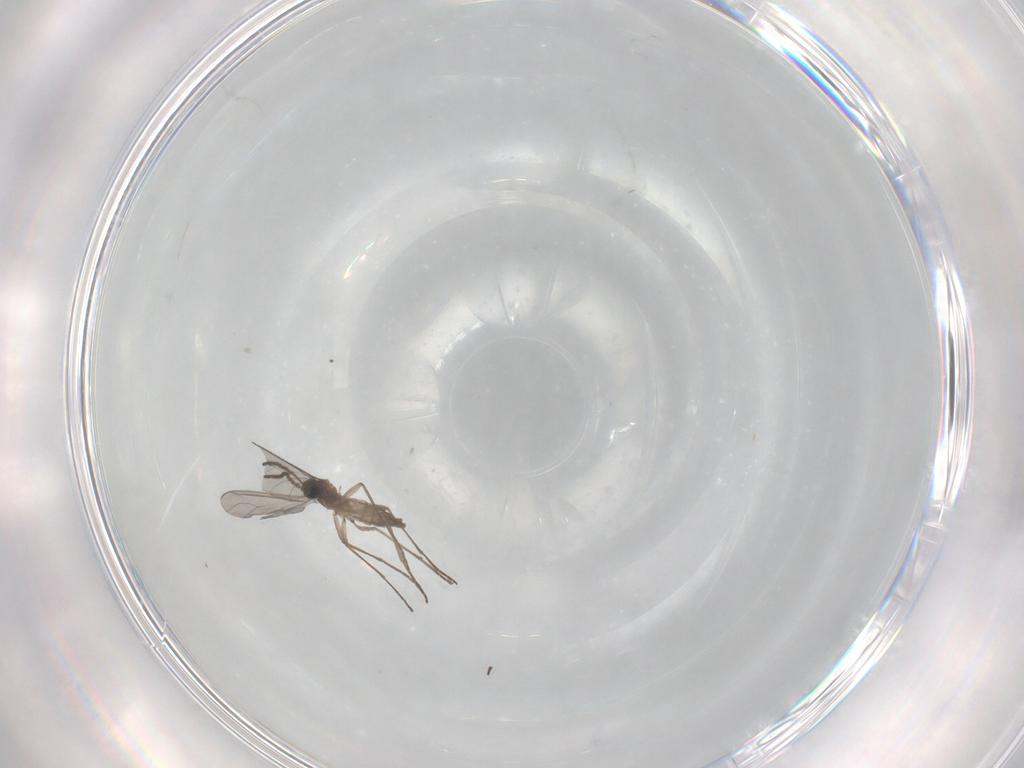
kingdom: Animalia
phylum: Arthropoda
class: Insecta
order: Diptera
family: Sciaridae
